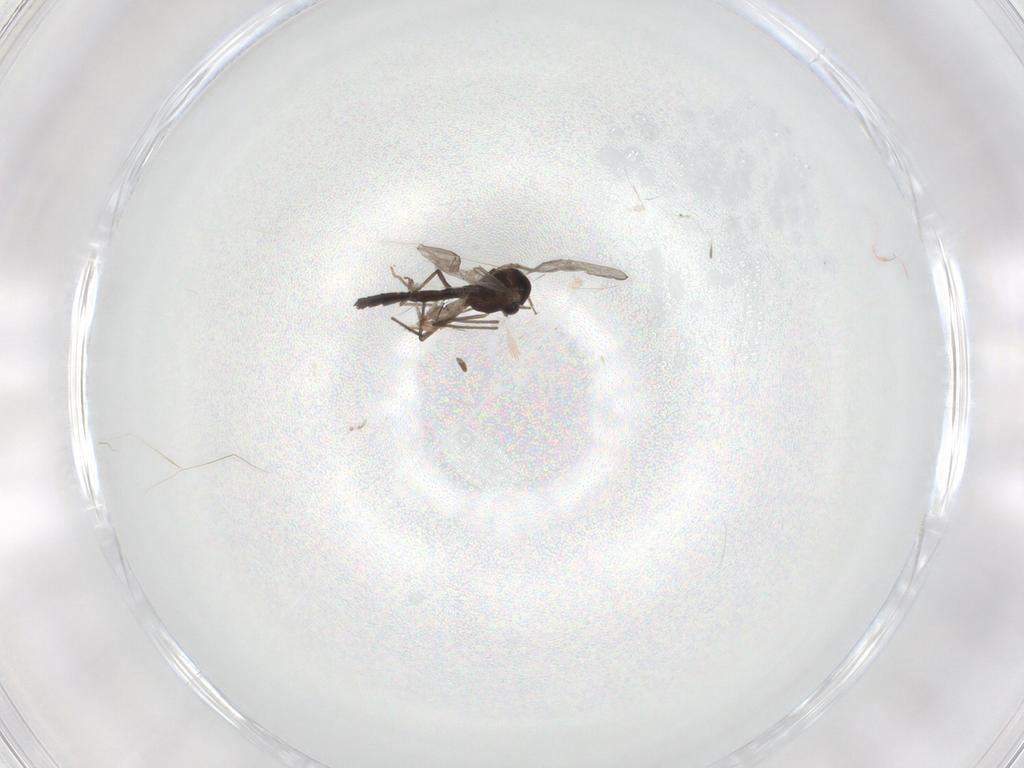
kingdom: Animalia
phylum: Arthropoda
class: Insecta
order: Diptera
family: Chironomidae
